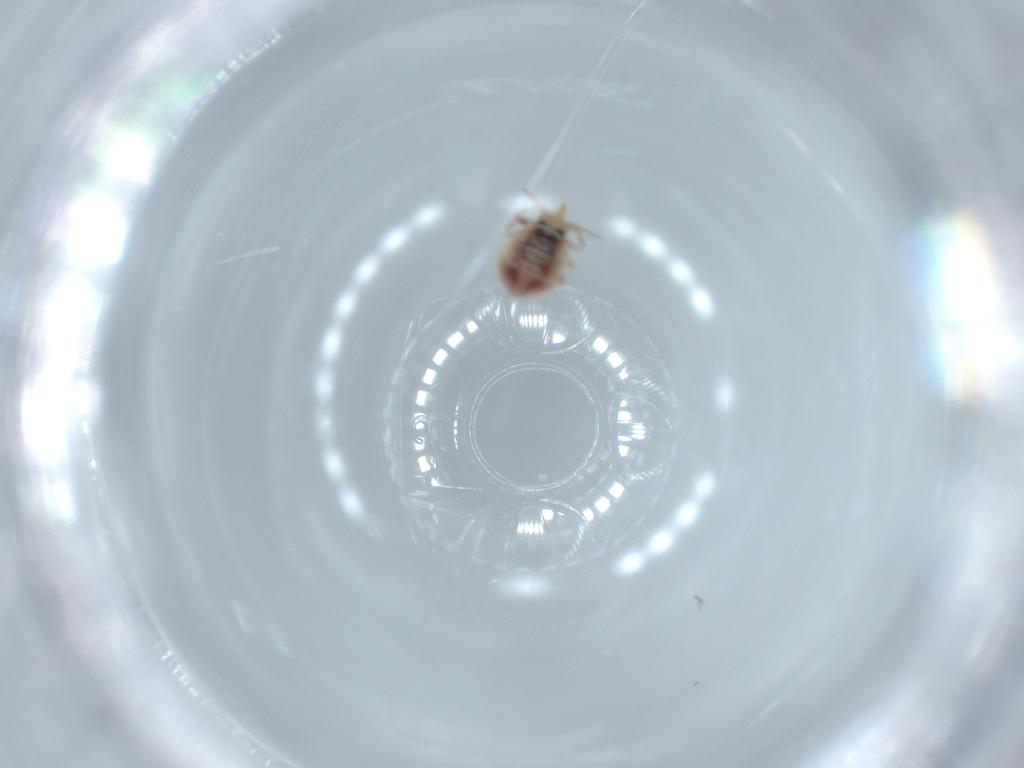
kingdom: Animalia
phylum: Arthropoda
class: Insecta
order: Neuroptera
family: Coniopterygidae
